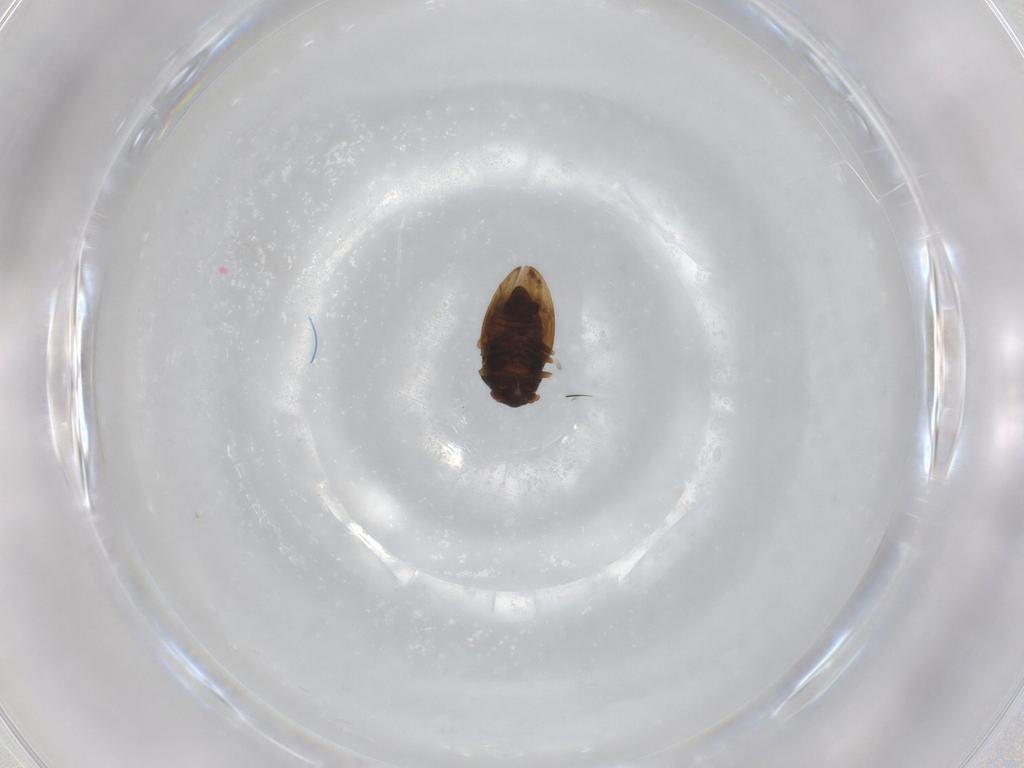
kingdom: Animalia
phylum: Arthropoda
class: Insecta
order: Hemiptera
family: Cicadellidae
